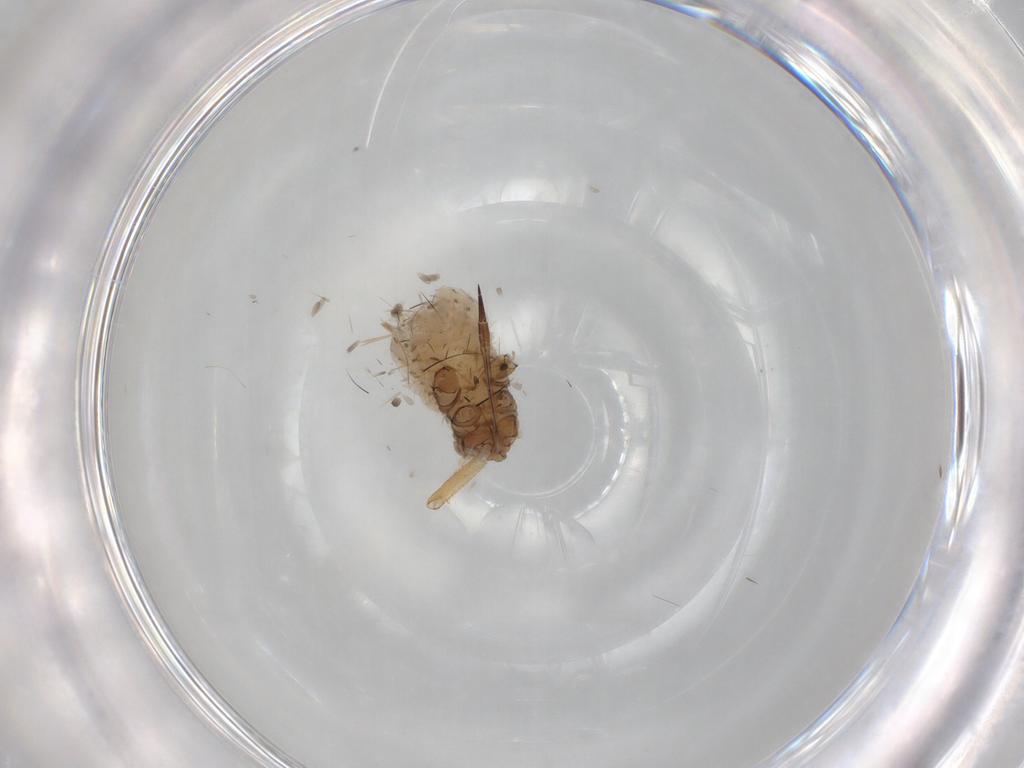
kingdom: Animalia
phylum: Arthropoda
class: Insecta
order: Hemiptera
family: Aphididae
